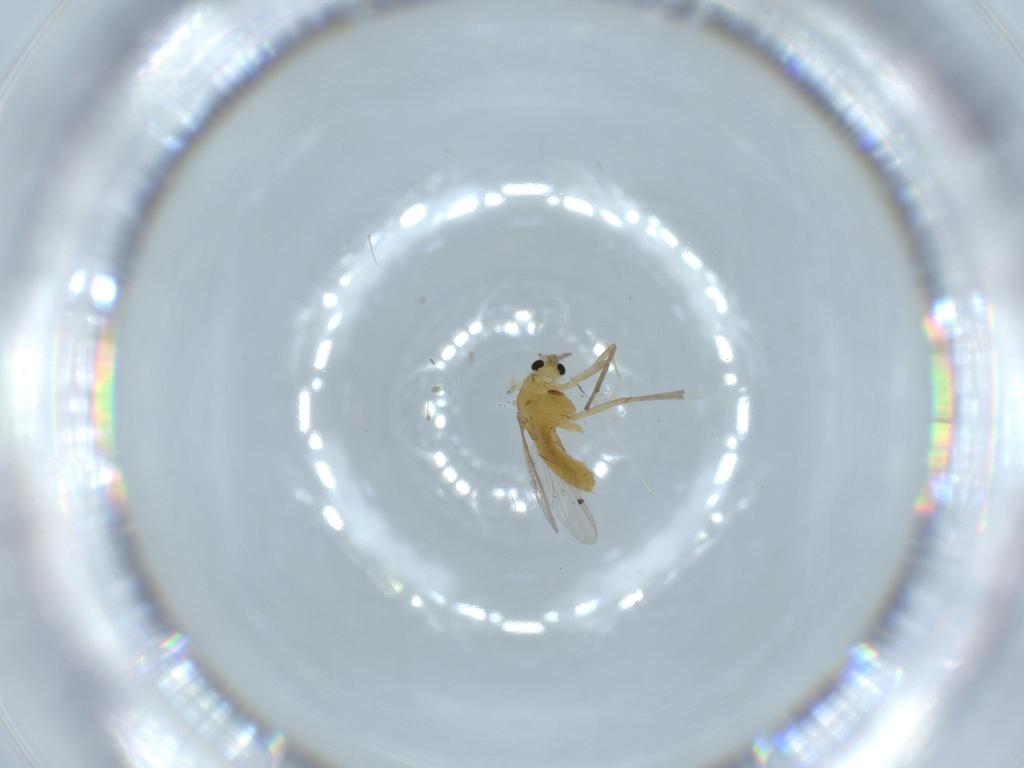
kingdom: Animalia
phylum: Arthropoda
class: Insecta
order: Diptera
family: Chironomidae
